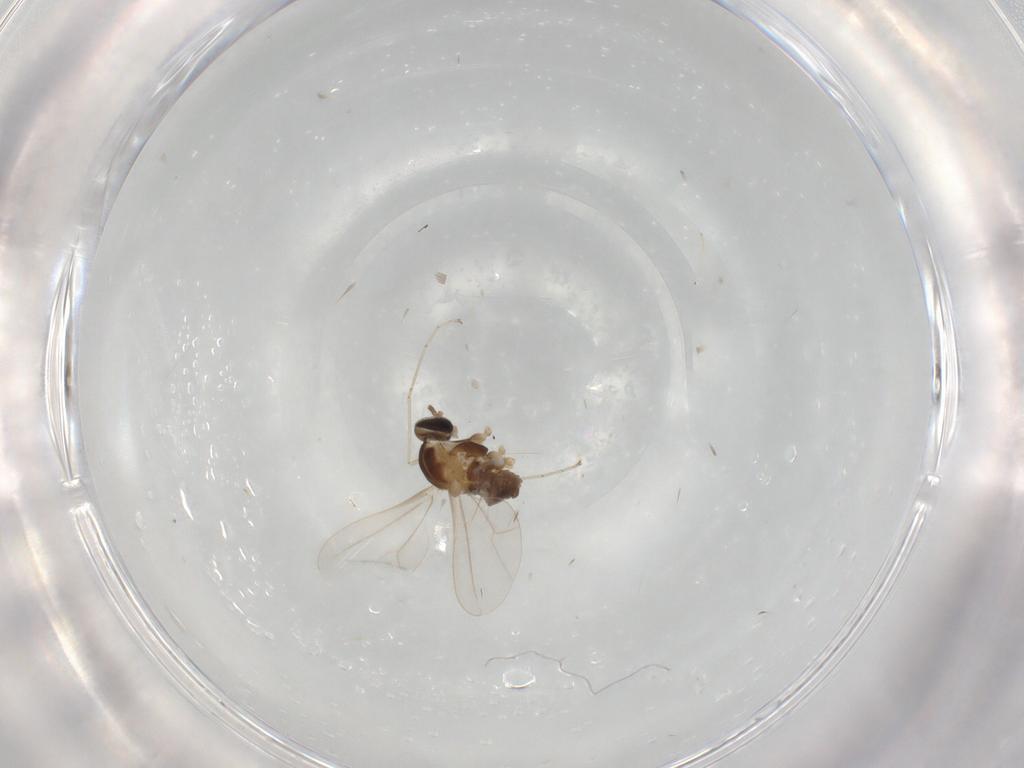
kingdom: Animalia
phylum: Arthropoda
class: Insecta
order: Diptera
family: Cecidomyiidae
